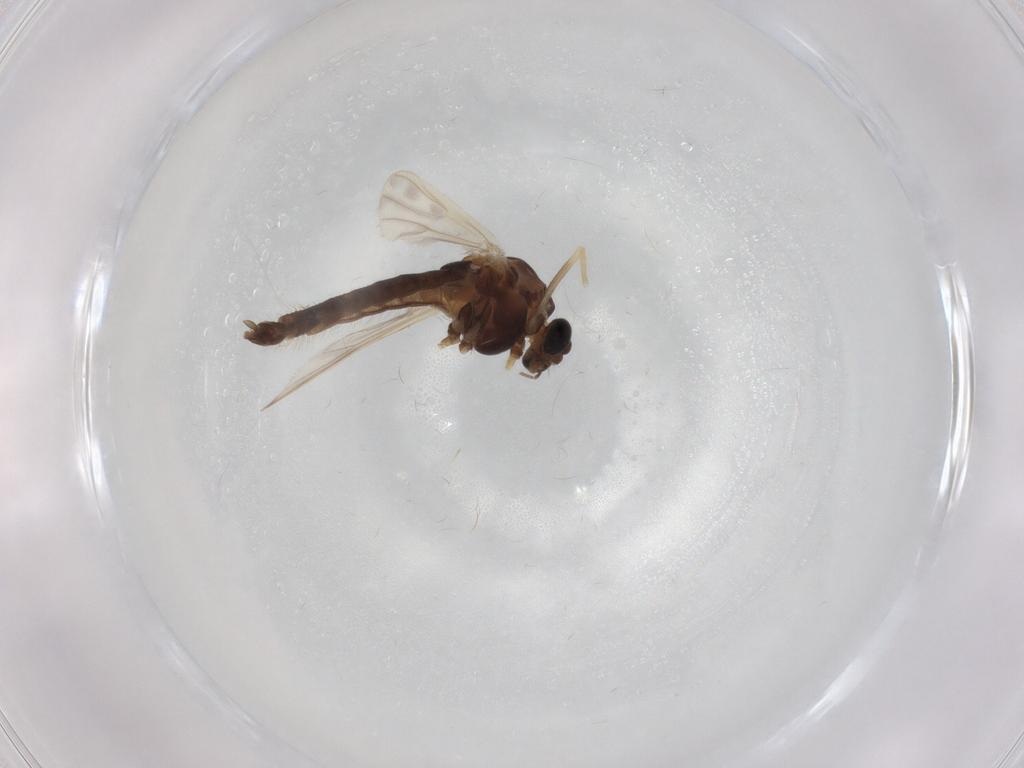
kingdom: Animalia
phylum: Arthropoda
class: Insecta
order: Diptera
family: Chironomidae
